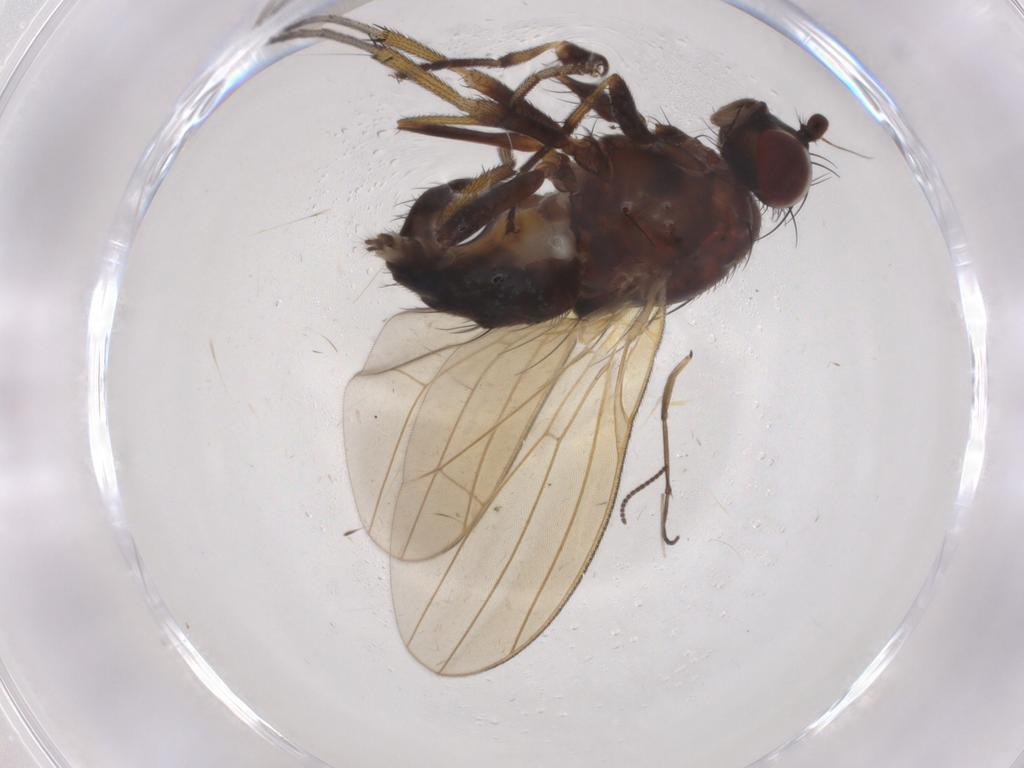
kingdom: Animalia
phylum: Arthropoda
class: Insecta
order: Diptera
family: Lauxaniidae
